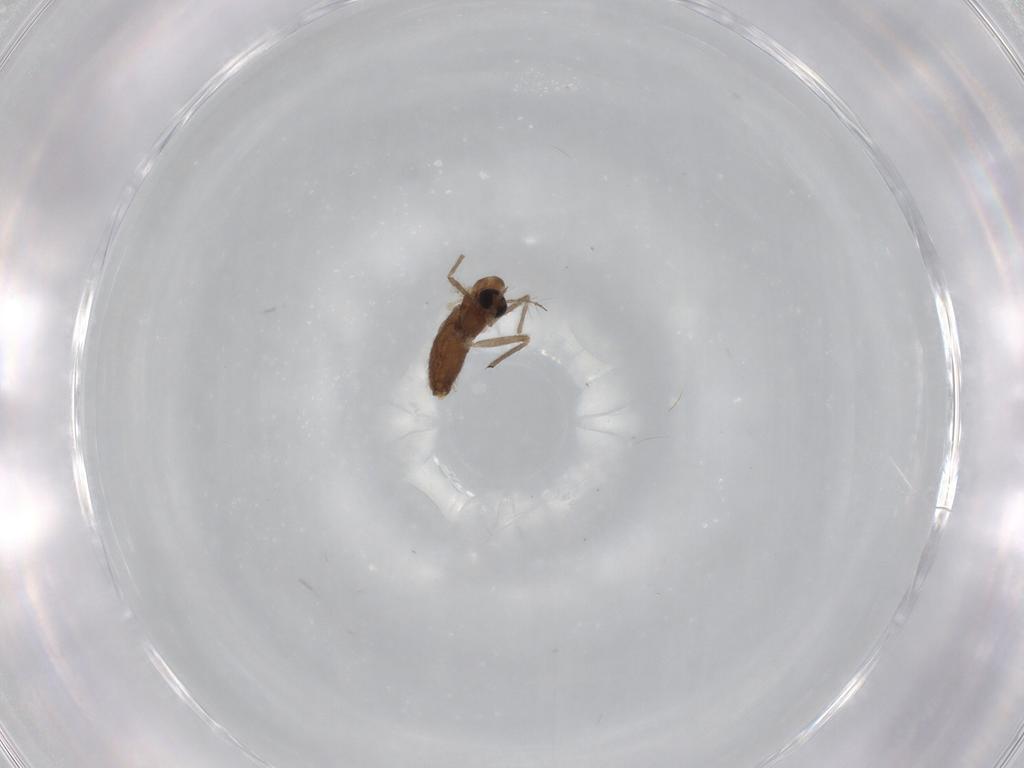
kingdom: Animalia
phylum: Arthropoda
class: Insecta
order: Diptera
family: Chironomidae
